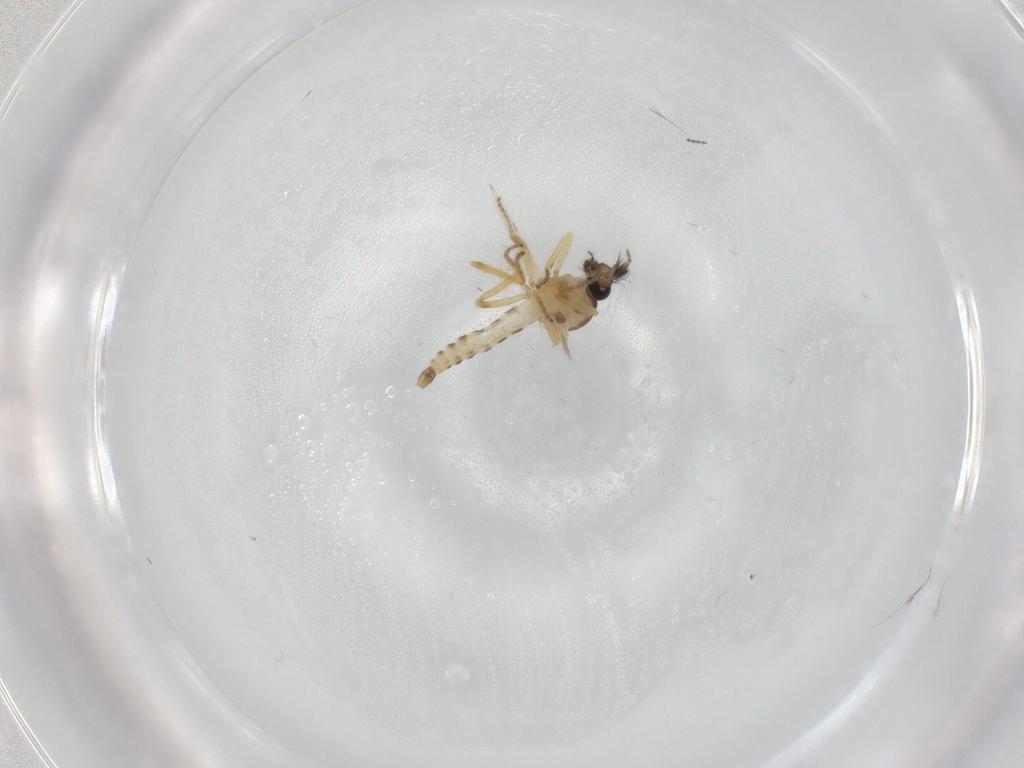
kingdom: Animalia
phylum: Arthropoda
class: Insecta
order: Diptera
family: Ceratopogonidae
